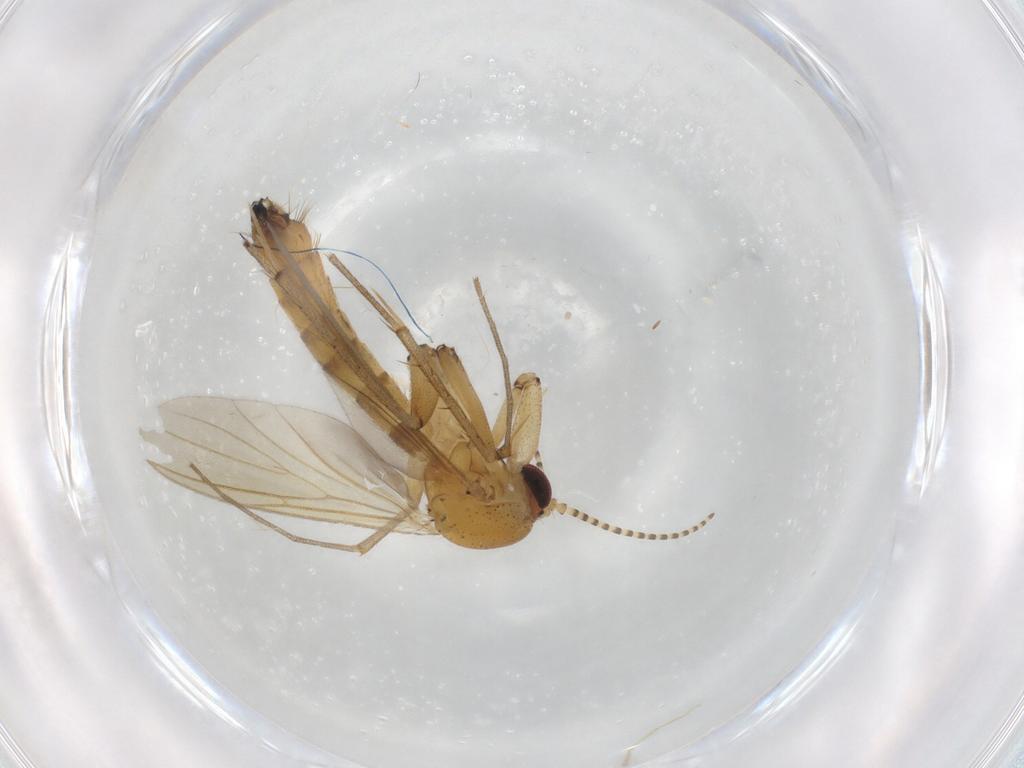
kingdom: Animalia
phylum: Arthropoda
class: Insecta
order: Diptera
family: Mycetophilidae
